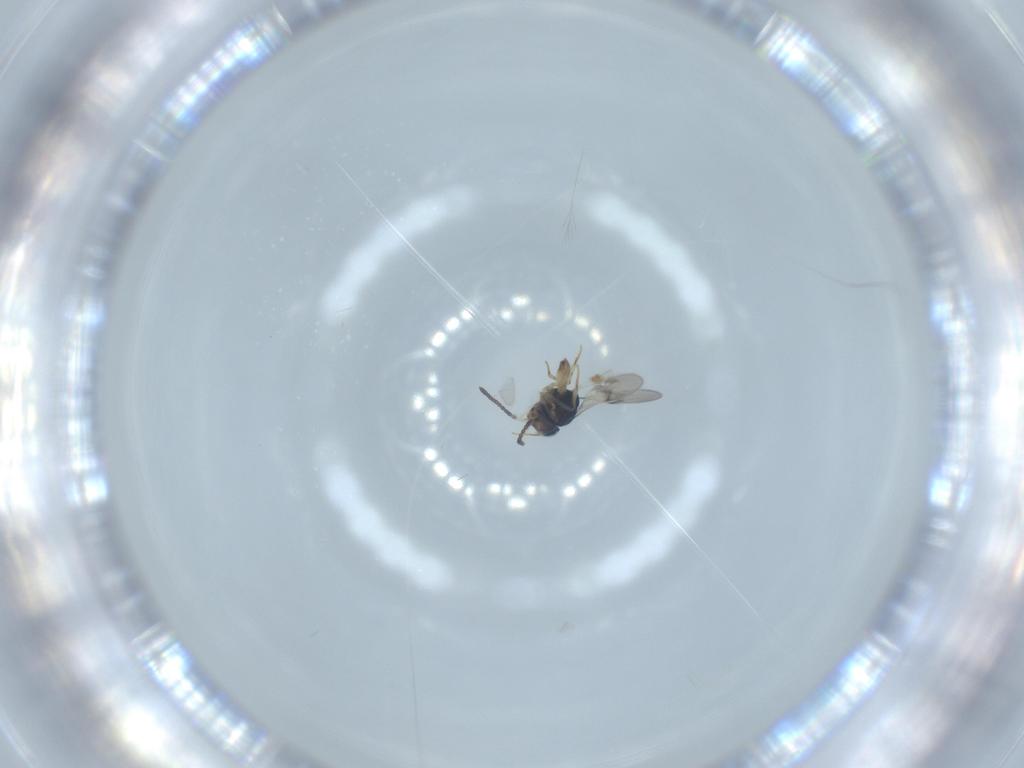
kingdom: Animalia
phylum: Arthropoda
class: Insecta
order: Hymenoptera
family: Scelionidae
